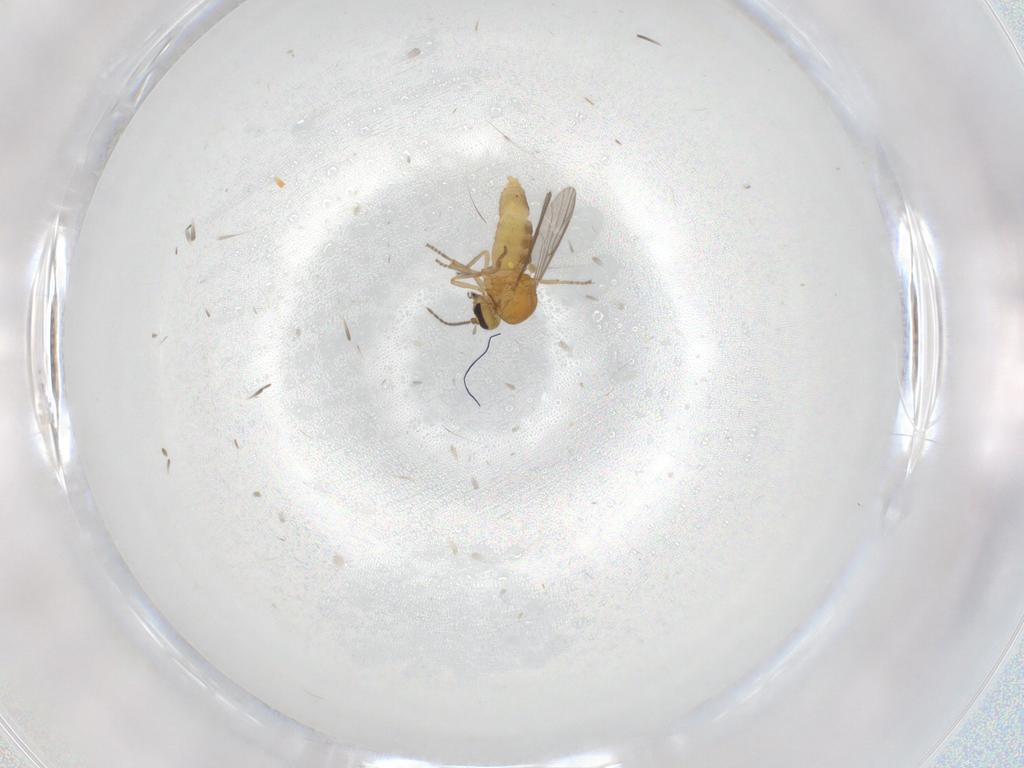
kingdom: Animalia
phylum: Arthropoda
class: Insecta
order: Diptera
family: Ceratopogonidae
